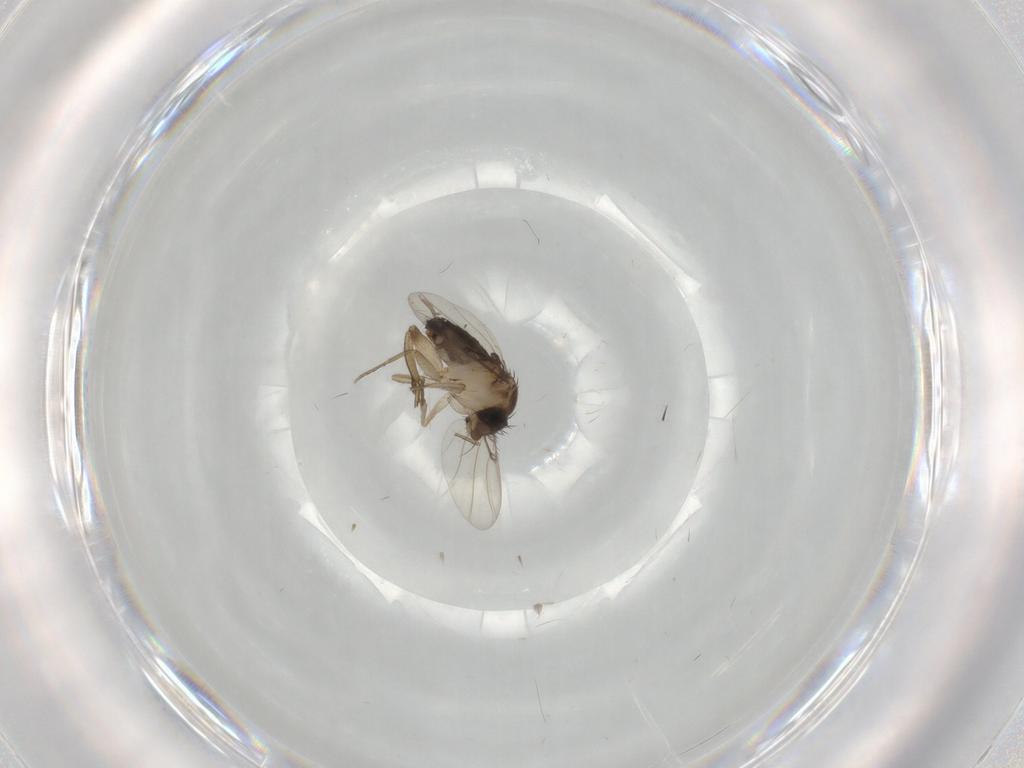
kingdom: Animalia
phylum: Arthropoda
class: Insecta
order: Diptera
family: Cecidomyiidae
